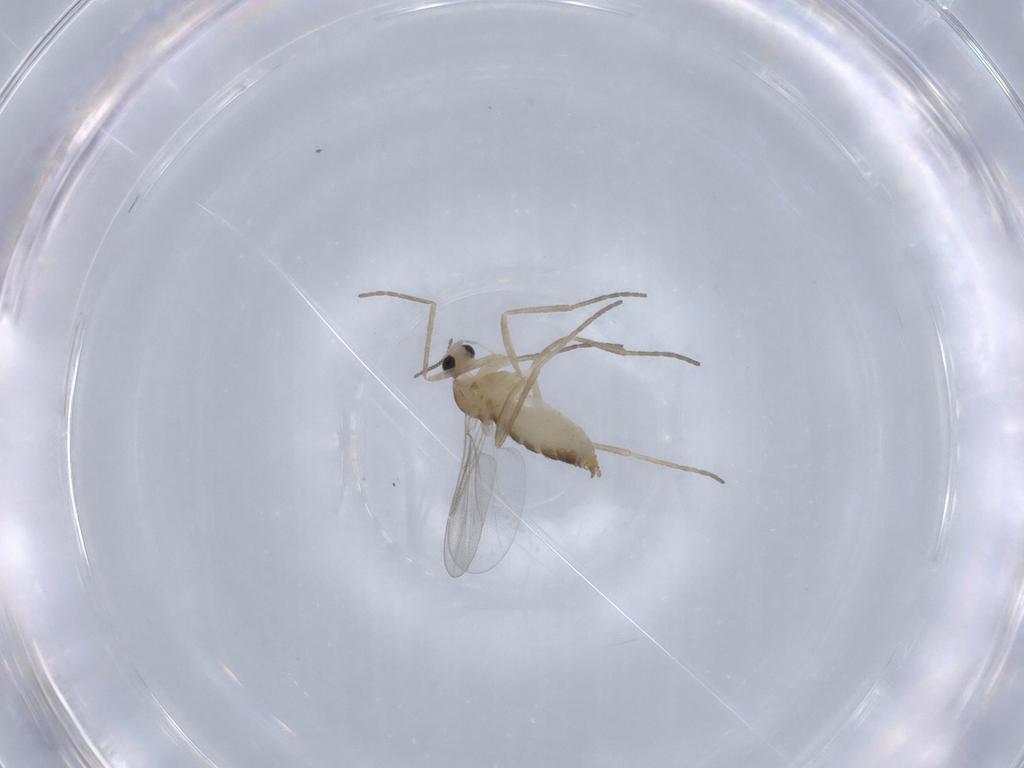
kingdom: Animalia
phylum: Arthropoda
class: Insecta
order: Diptera
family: Cecidomyiidae
